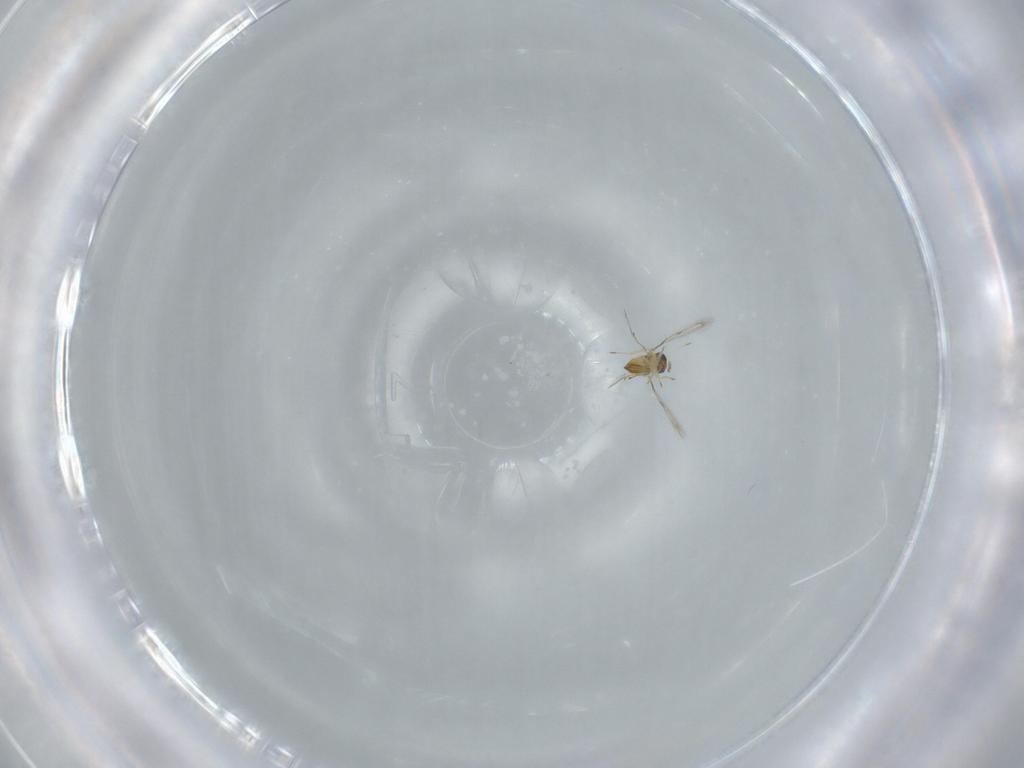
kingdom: Animalia
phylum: Arthropoda
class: Insecta
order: Hymenoptera
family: Trichogrammatidae
